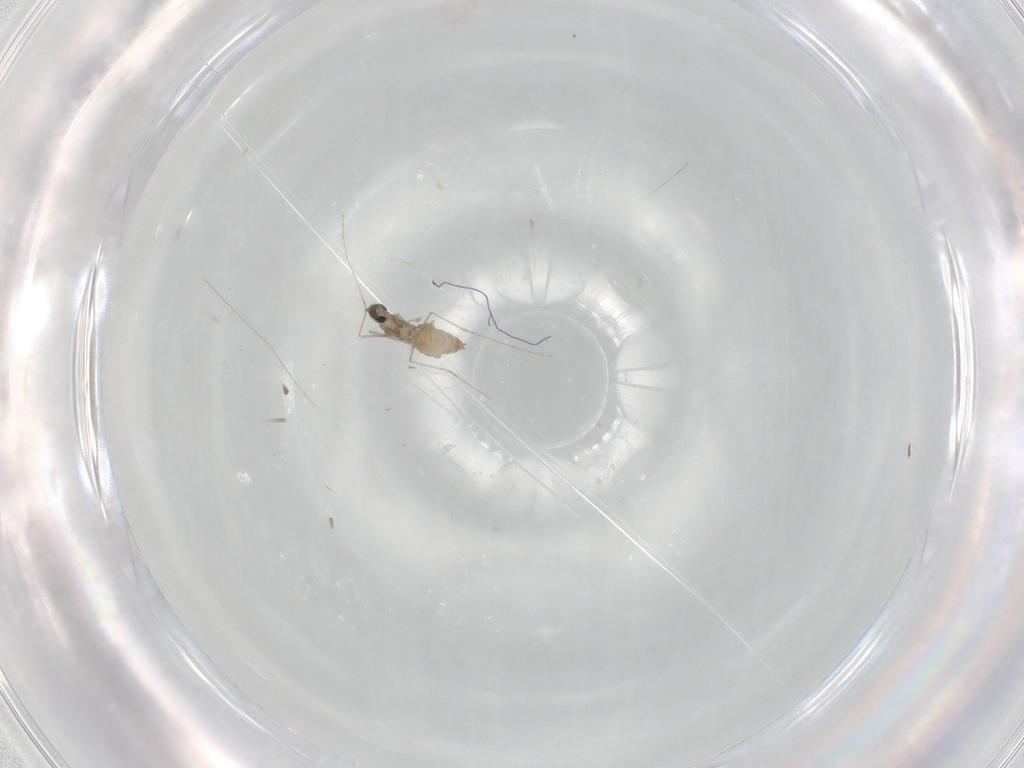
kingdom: Animalia
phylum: Arthropoda
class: Insecta
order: Diptera
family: Cecidomyiidae
